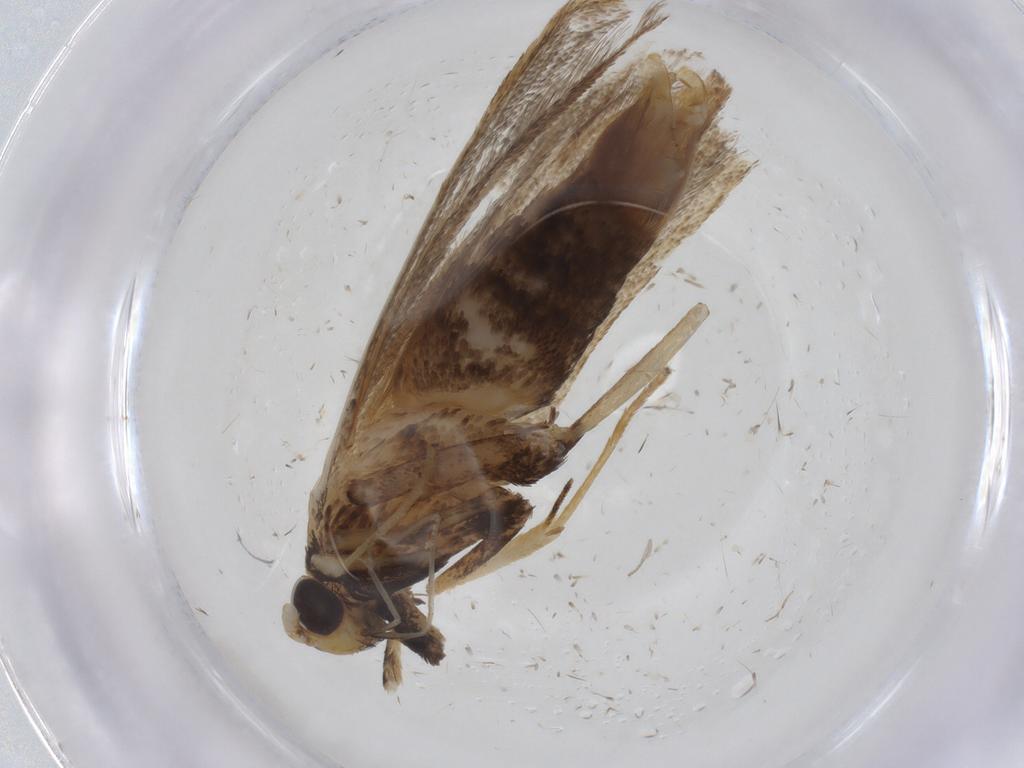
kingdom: Animalia
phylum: Arthropoda
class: Insecta
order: Lepidoptera
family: Lecithoceridae
